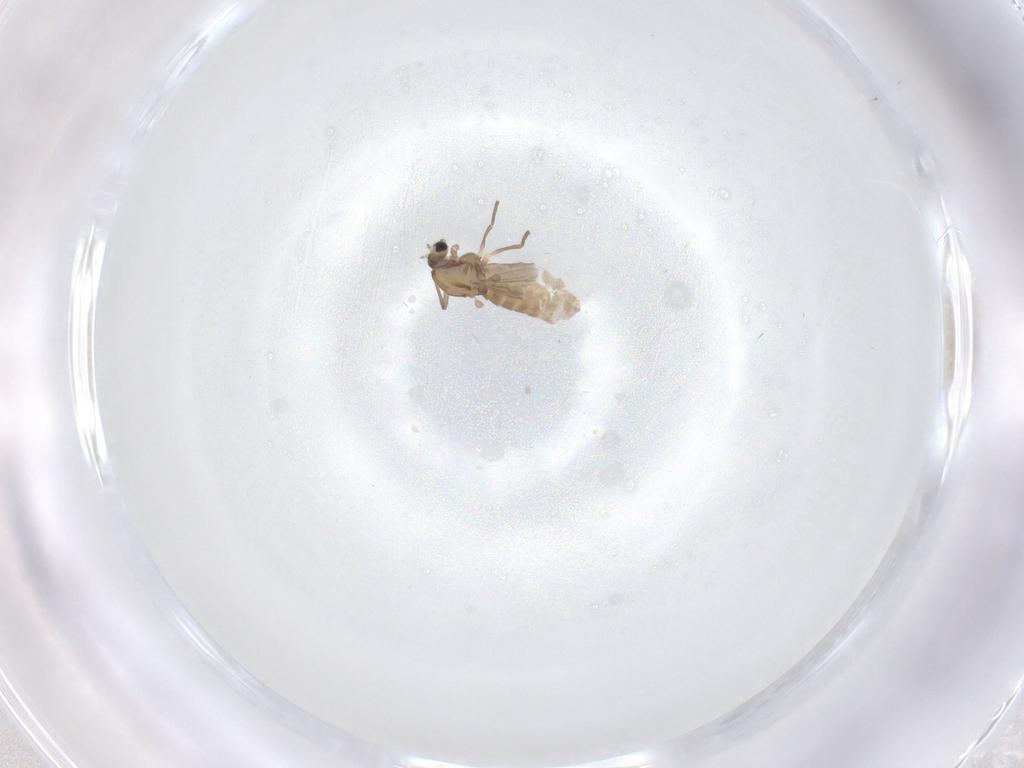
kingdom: Animalia
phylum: Arthropoda
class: Insecta
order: Diptera
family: Chironomidae
